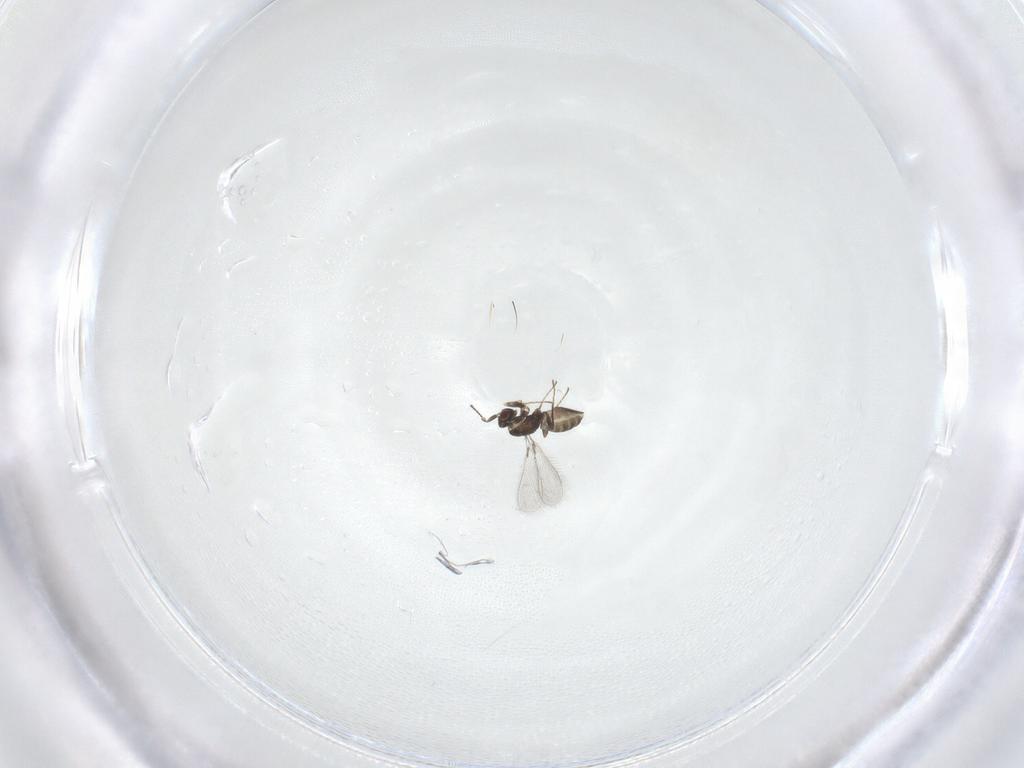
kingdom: Animalia
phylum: Arthropoda
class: Insecta
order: Hymenoptera
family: Mymaridae
